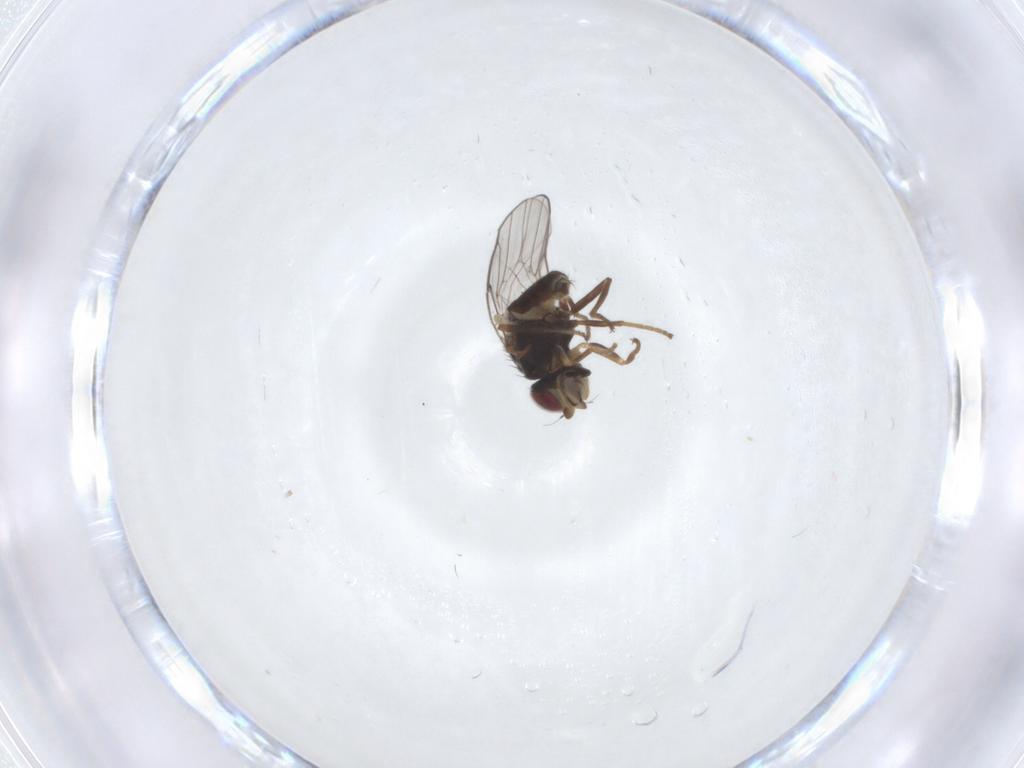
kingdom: Animalia
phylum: Arthropoda
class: Insecta
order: Diptera
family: Chloropidae
